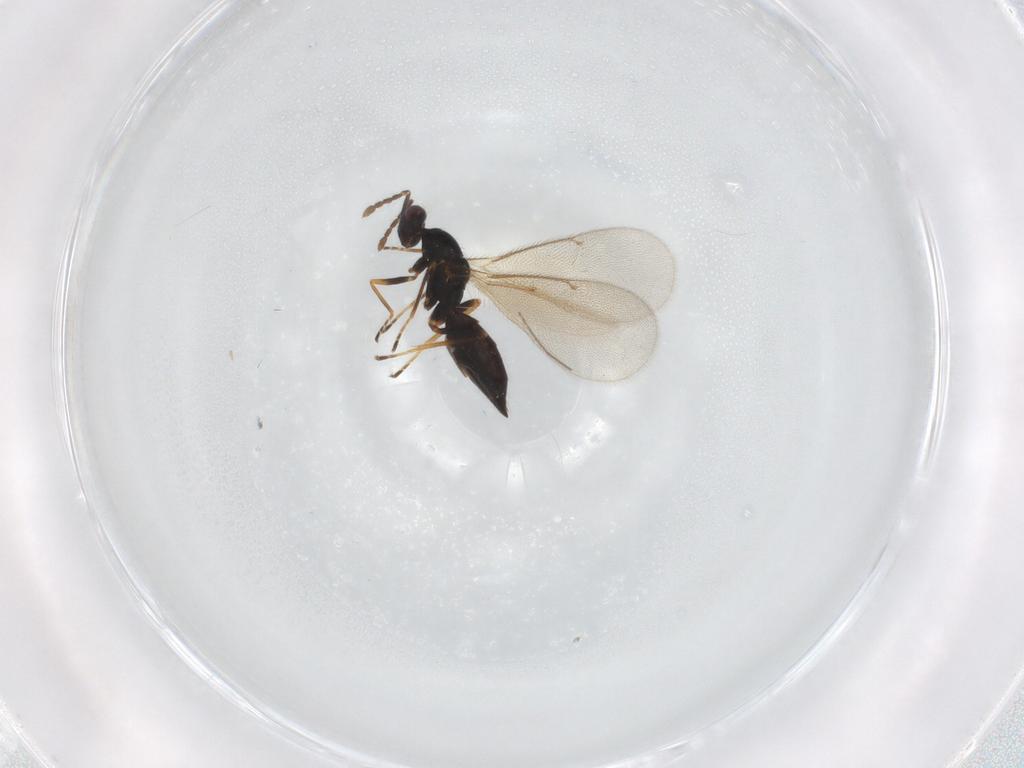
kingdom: Animalia
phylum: Arthropoda
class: Insecta
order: Hymenoptera
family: Eulophidae
